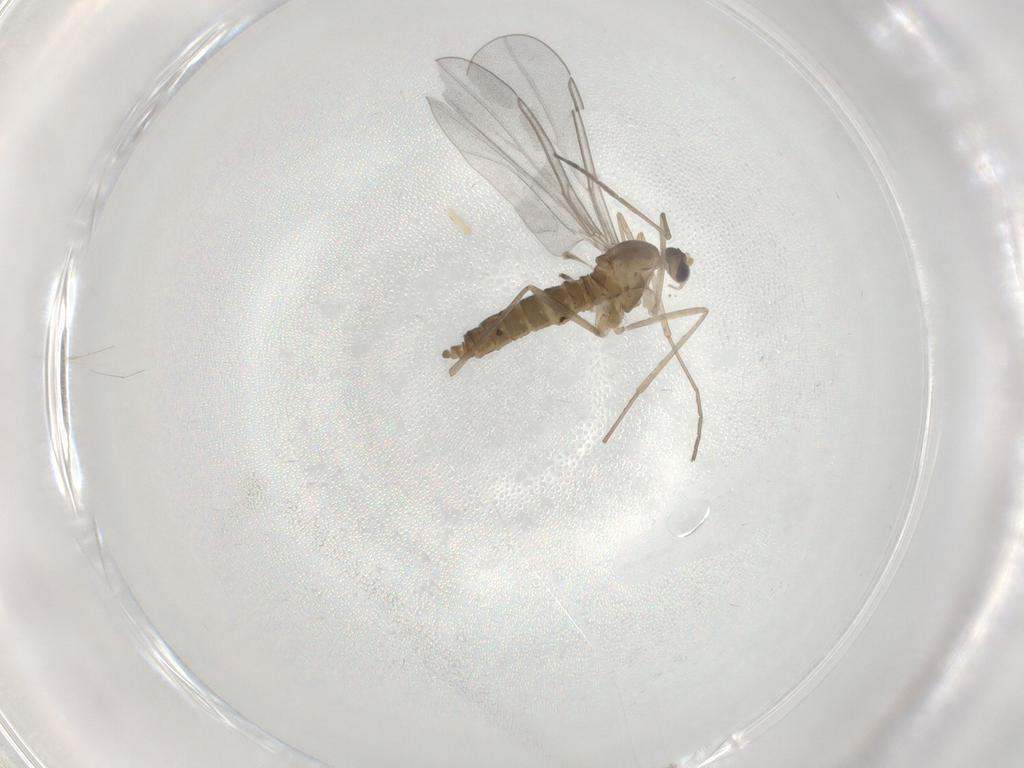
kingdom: Animalia
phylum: Arthropoda
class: Insecta
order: Diptera
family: Cecidomyiidae
